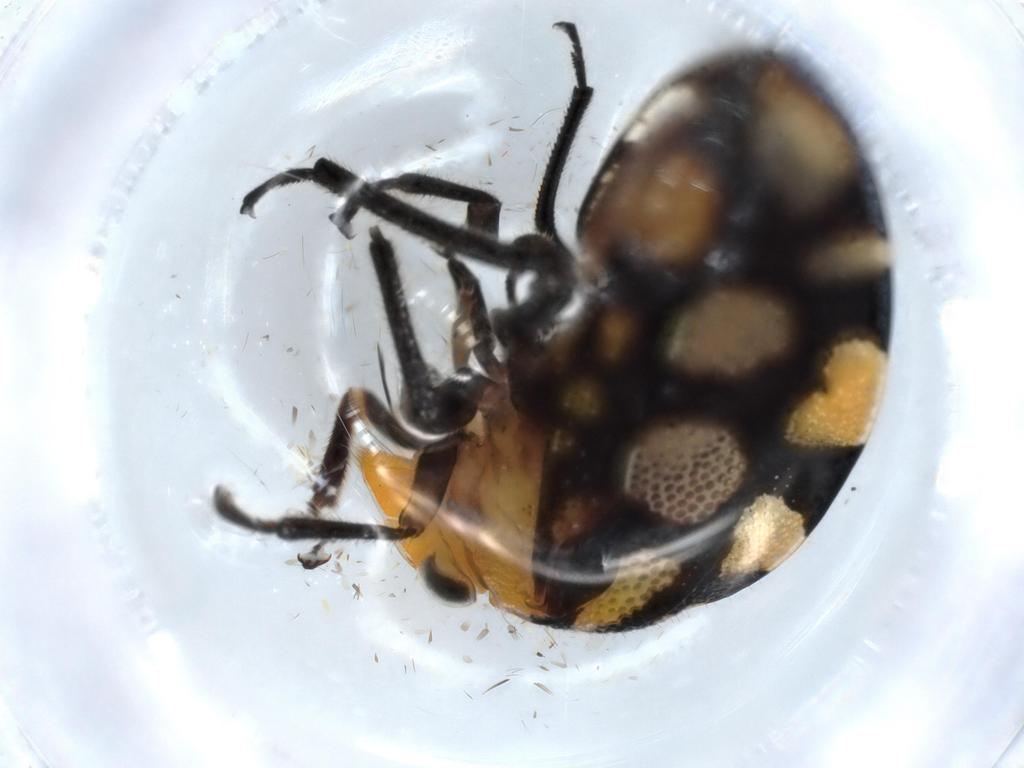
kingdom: Animalia
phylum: Arthropoda
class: Insecta
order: Hemiptera
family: Membracidae
